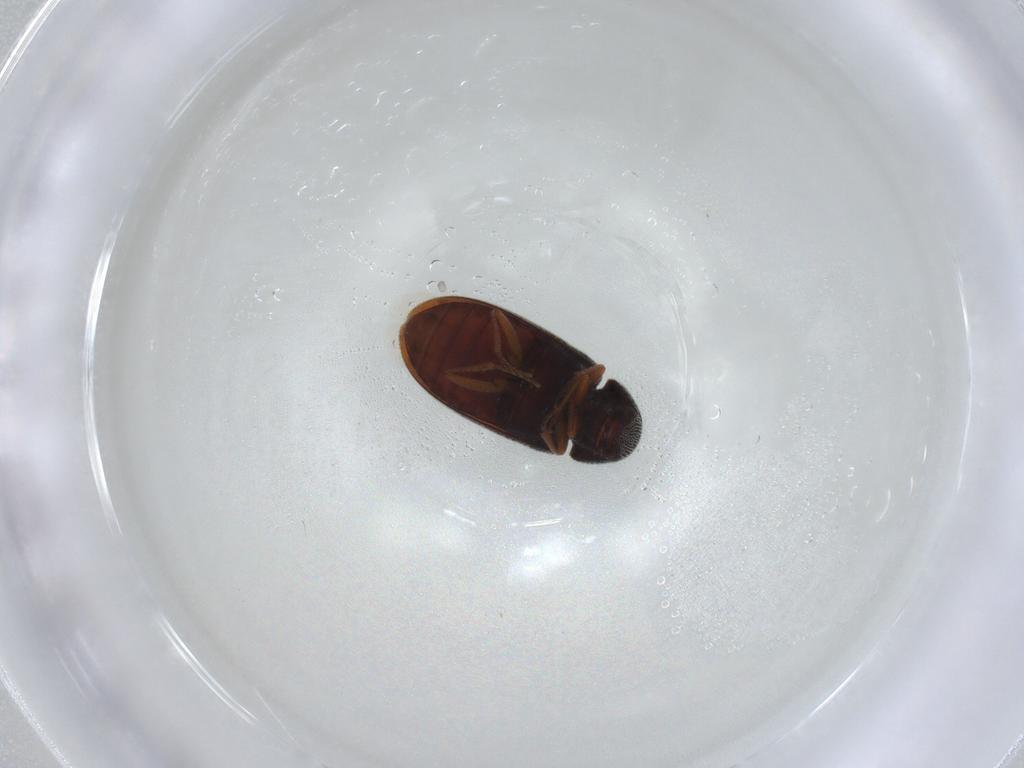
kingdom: Animalia
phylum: Arthropoda
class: Insecta
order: Coleoptera
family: Rhadalidae
